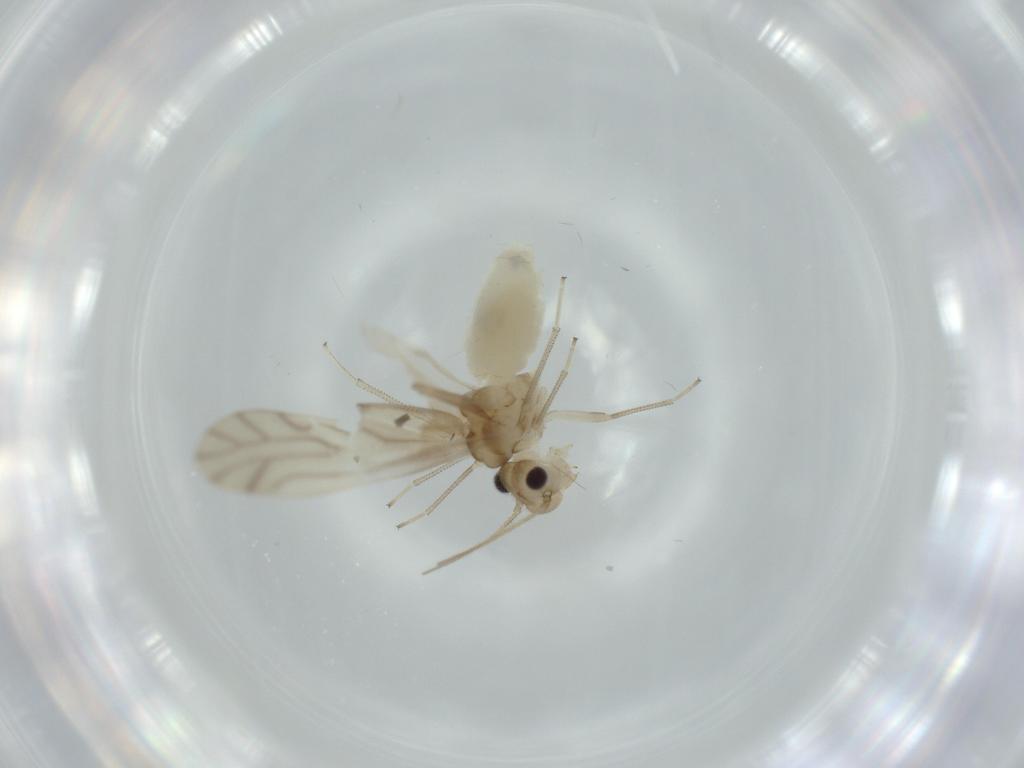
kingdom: Animalia
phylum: Arthropoda
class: Insecta
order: Psocodea
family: Caeciliusidae
